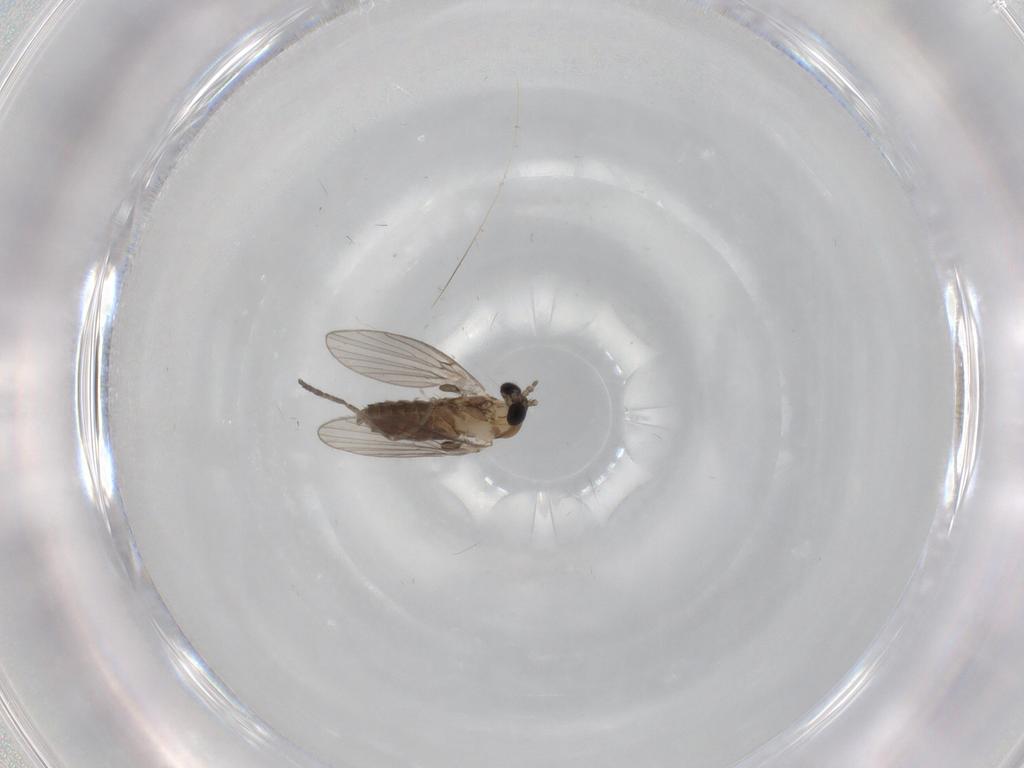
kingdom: Animalia
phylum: Arthropoda
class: Insecta
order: Diptera
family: Psychodidae
